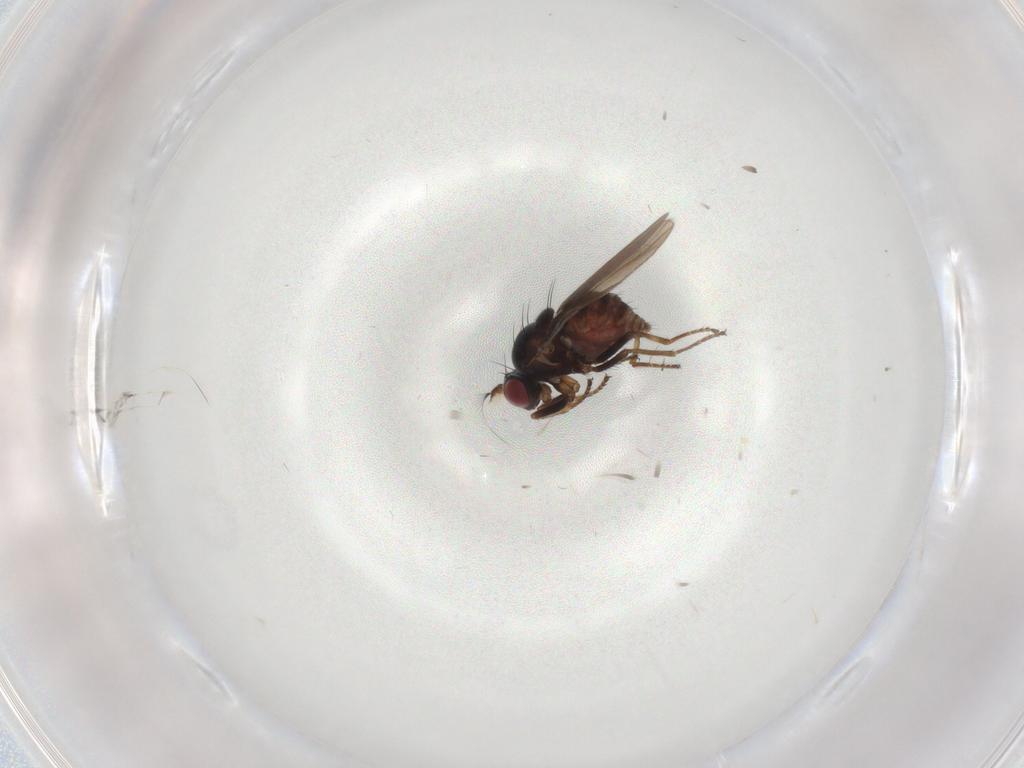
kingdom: Animalia
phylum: Arthropoda
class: Insecta
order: Diptera
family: Ephydridae
